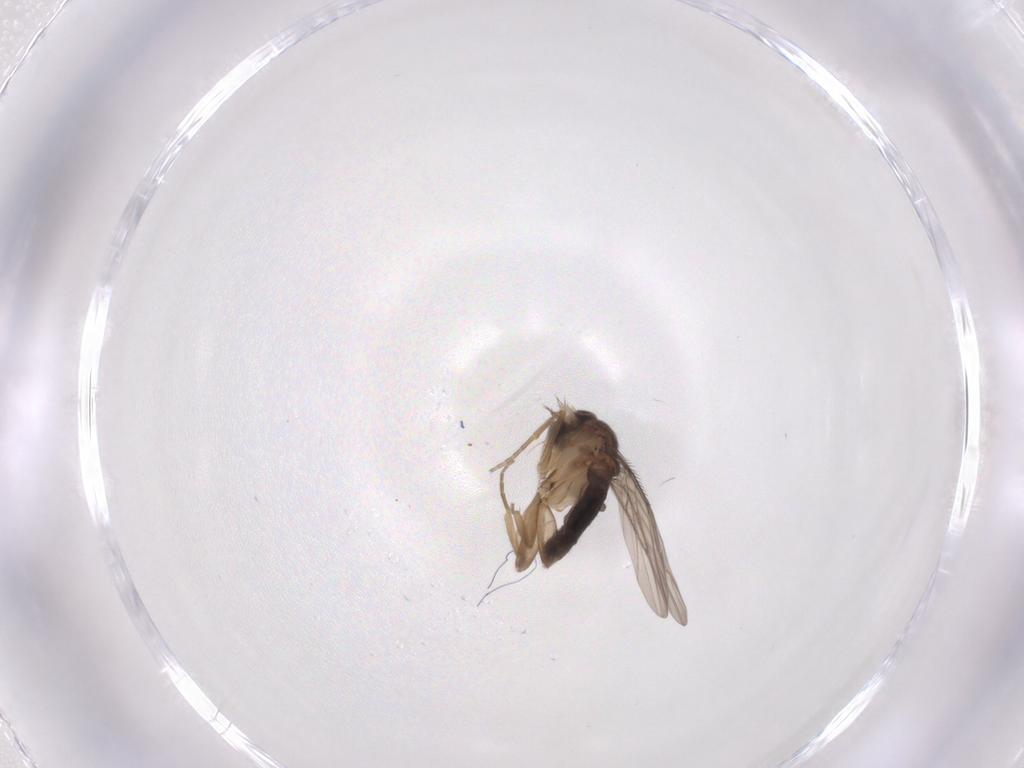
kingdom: Animalia
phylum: Arthropoda
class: Insecta
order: Diptera
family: Phoridae
